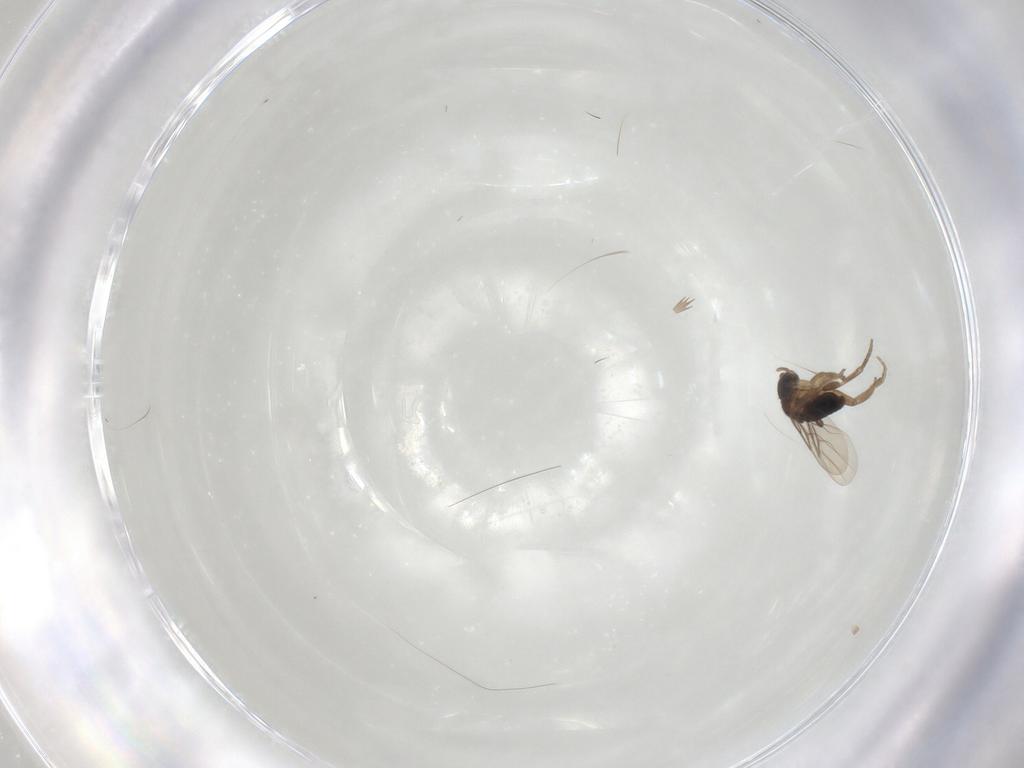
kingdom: Animalia
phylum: Arthropoda
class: Insecta
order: Diptera
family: Phoridae
